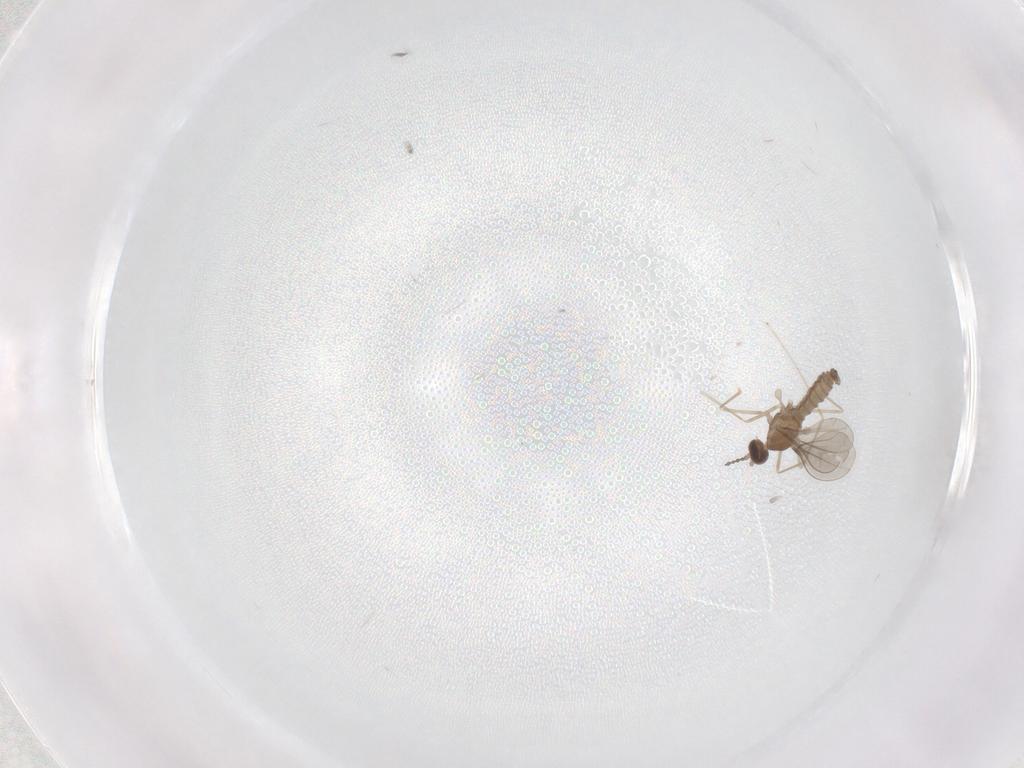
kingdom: Animalia
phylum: Arthropoda
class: Insecta
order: Diptera
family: Cecidomyiidae
